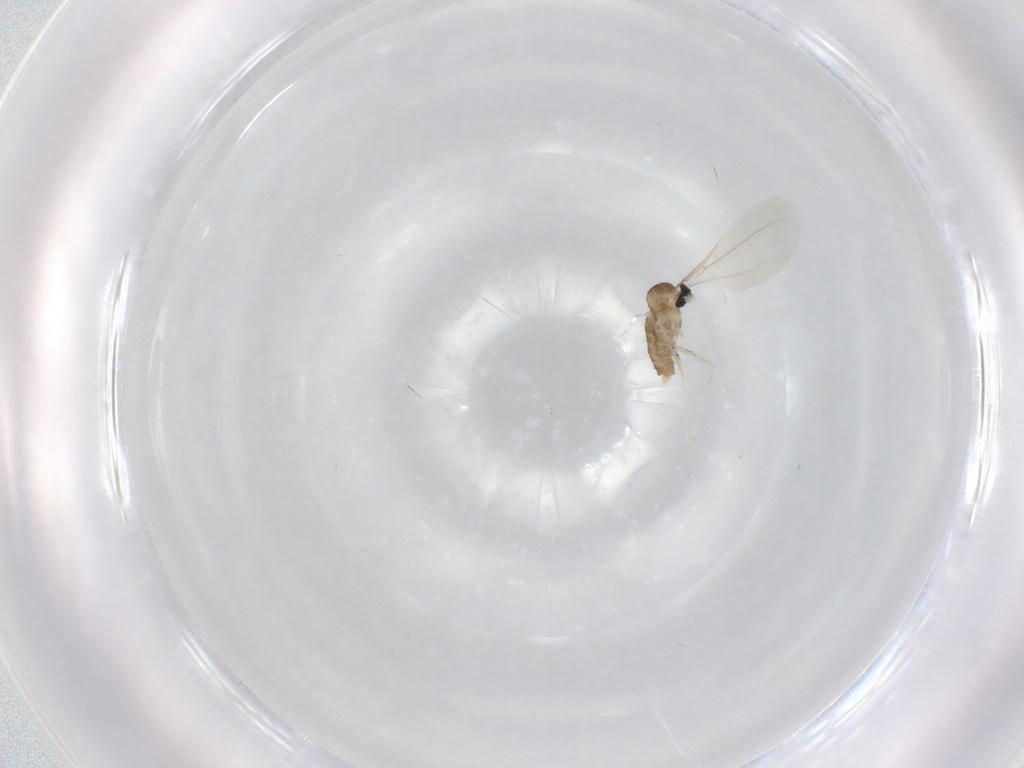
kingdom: Animalia
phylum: Arthropoda
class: Insecta
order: Diptera
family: Cecidomyiidae
